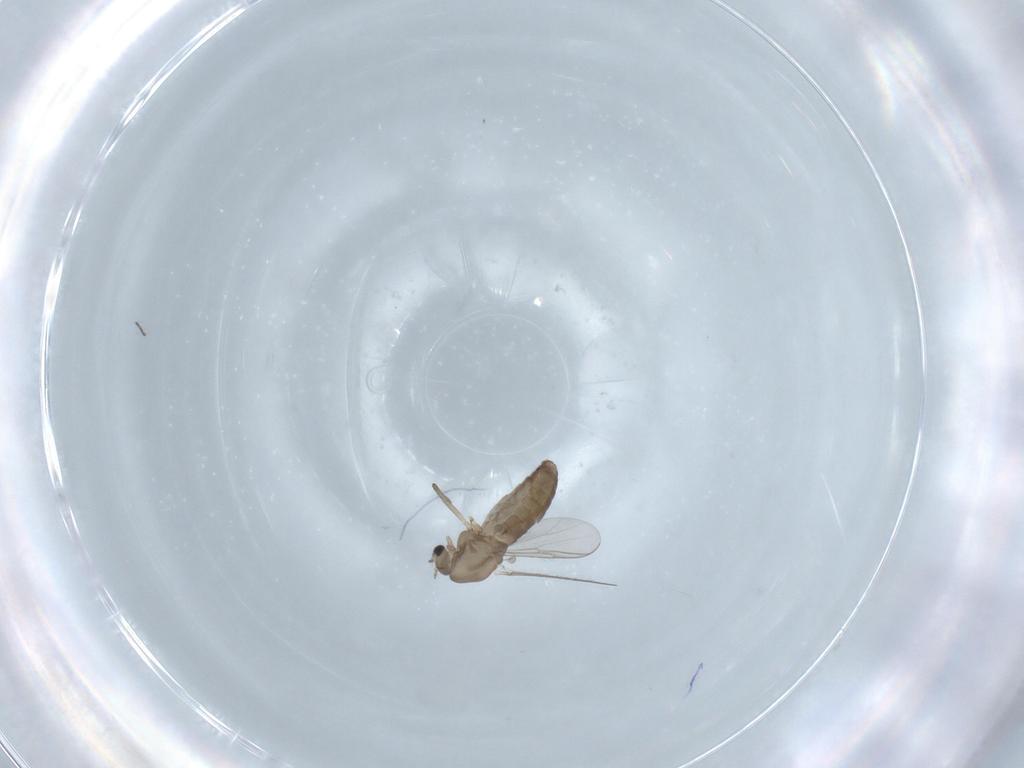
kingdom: Animalia
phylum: Arthropoda
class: Insecta
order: Diptera
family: Chironomidae
